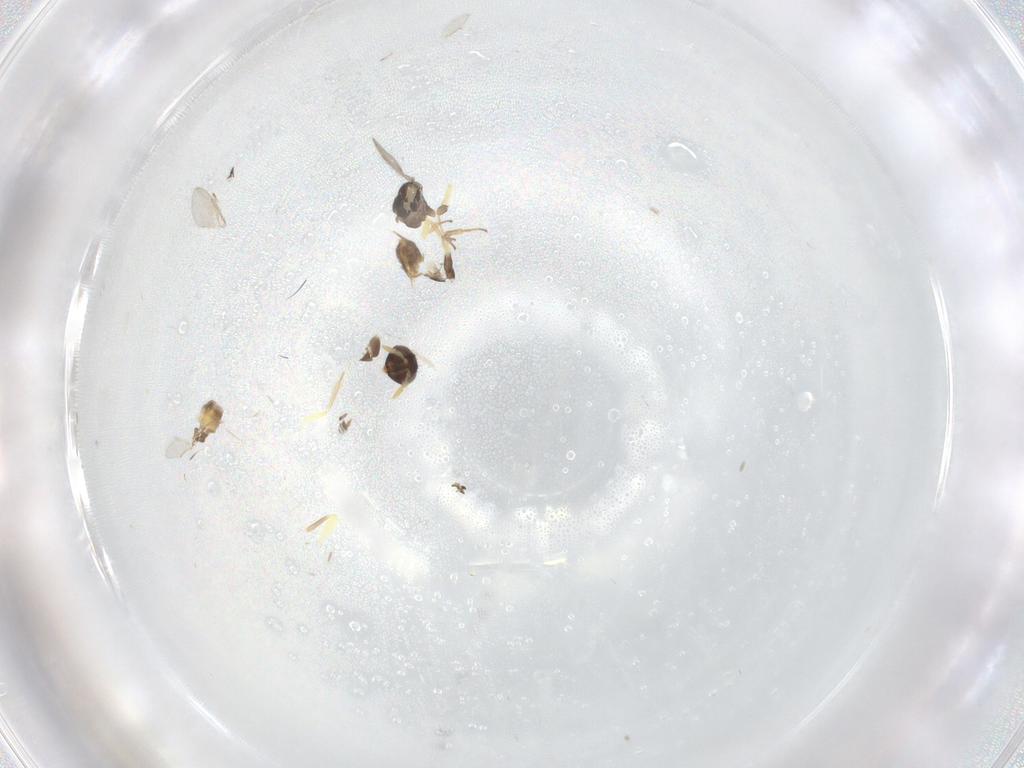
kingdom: Animalia
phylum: Arthropoda
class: Insecta
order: Hymenoptera
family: Aphelinidae
